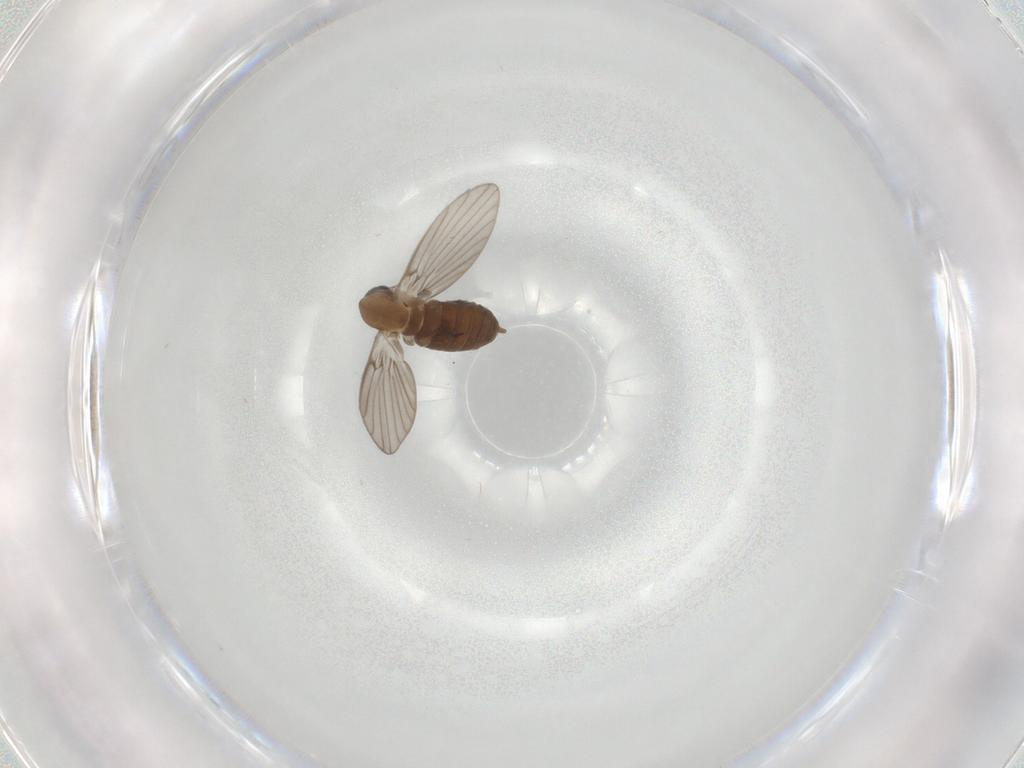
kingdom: Animalia
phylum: Arthropoda
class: Insecta
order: Diptera
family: Psychodidae
